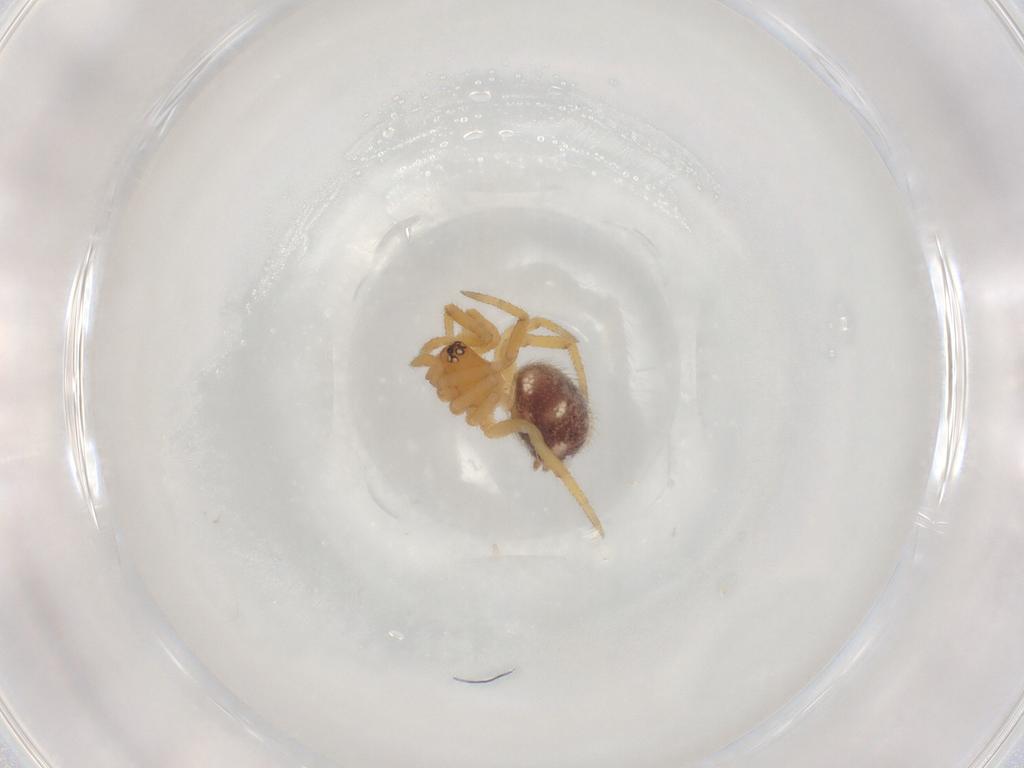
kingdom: Animalia
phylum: Arthropoda
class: Arachnida
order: Araneae
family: Theridiidae
